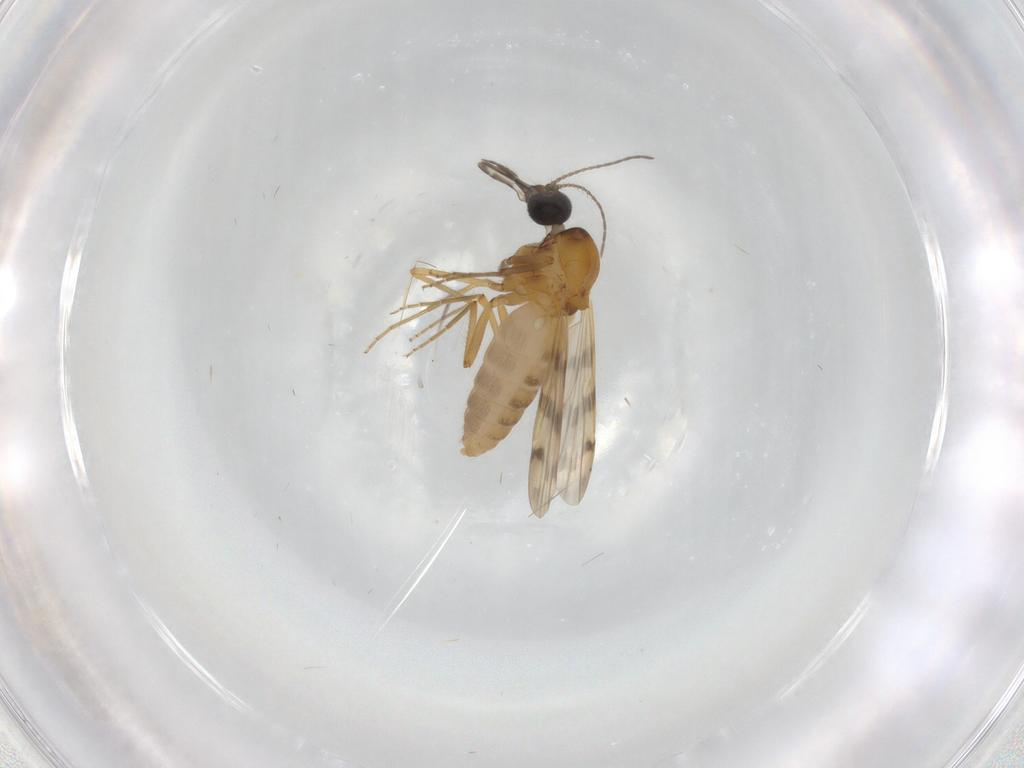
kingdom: Animalia
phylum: Arthropoda
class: Insecta
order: Diptera
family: Ceratopogonidae
